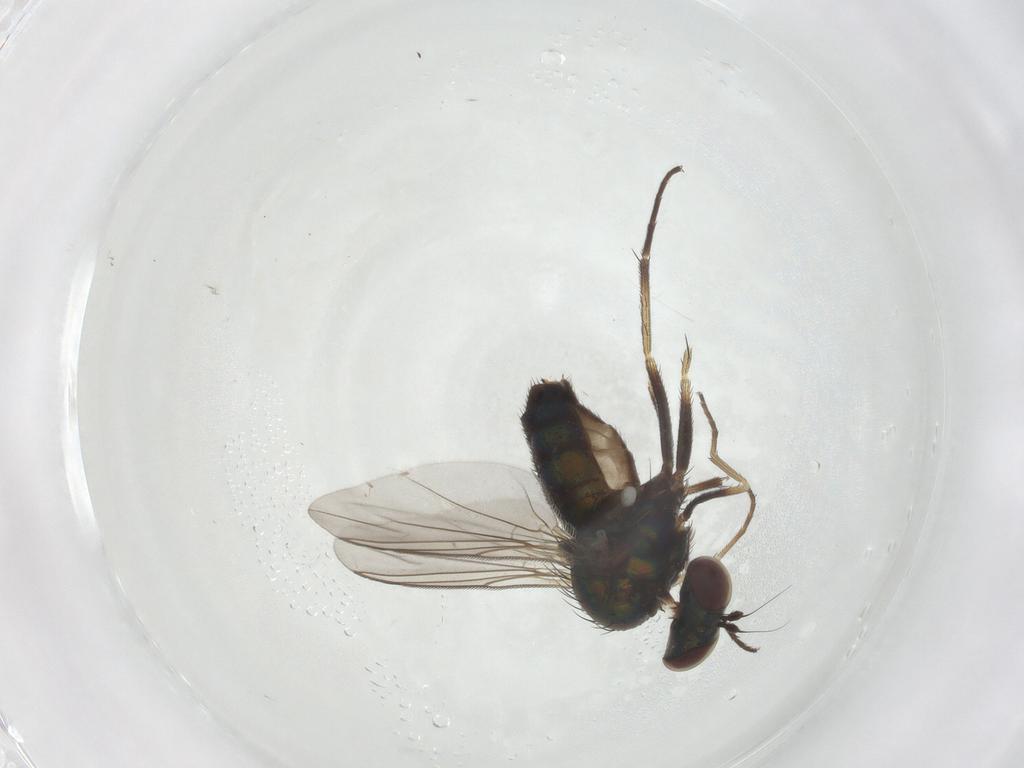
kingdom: Animalia
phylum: Arthropoda
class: Insecta
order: Diptera
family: Dolichopodidae
